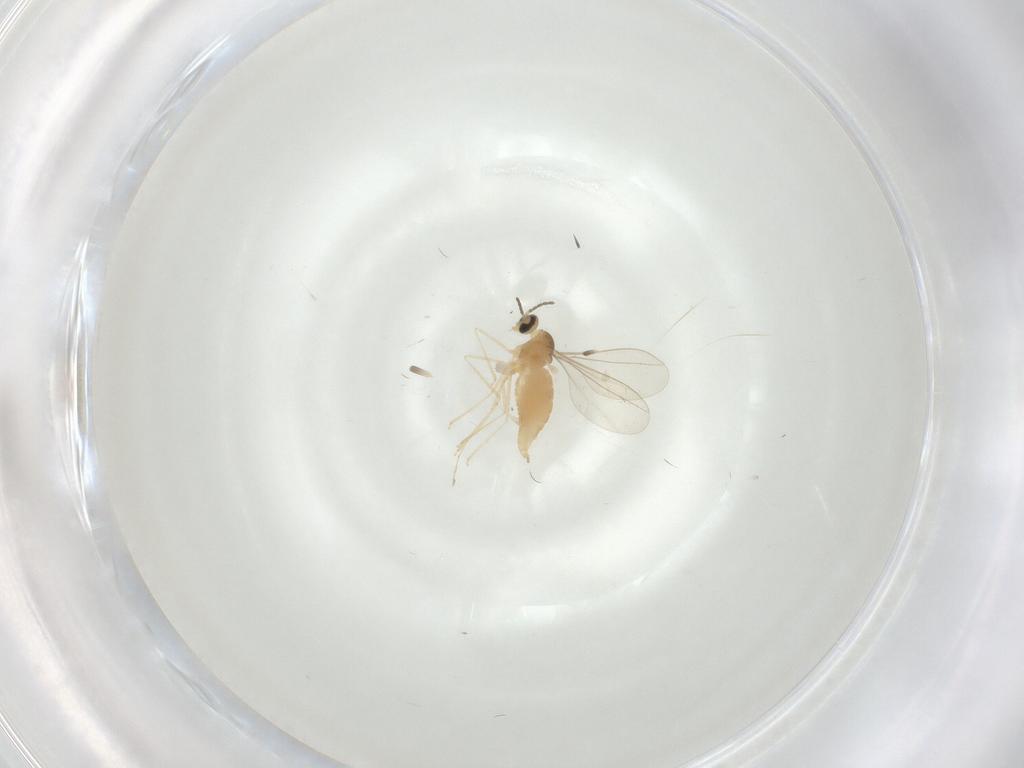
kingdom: Animalia
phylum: Arthropoda
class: Insecta
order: Diptera
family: Cecidomyiidae
